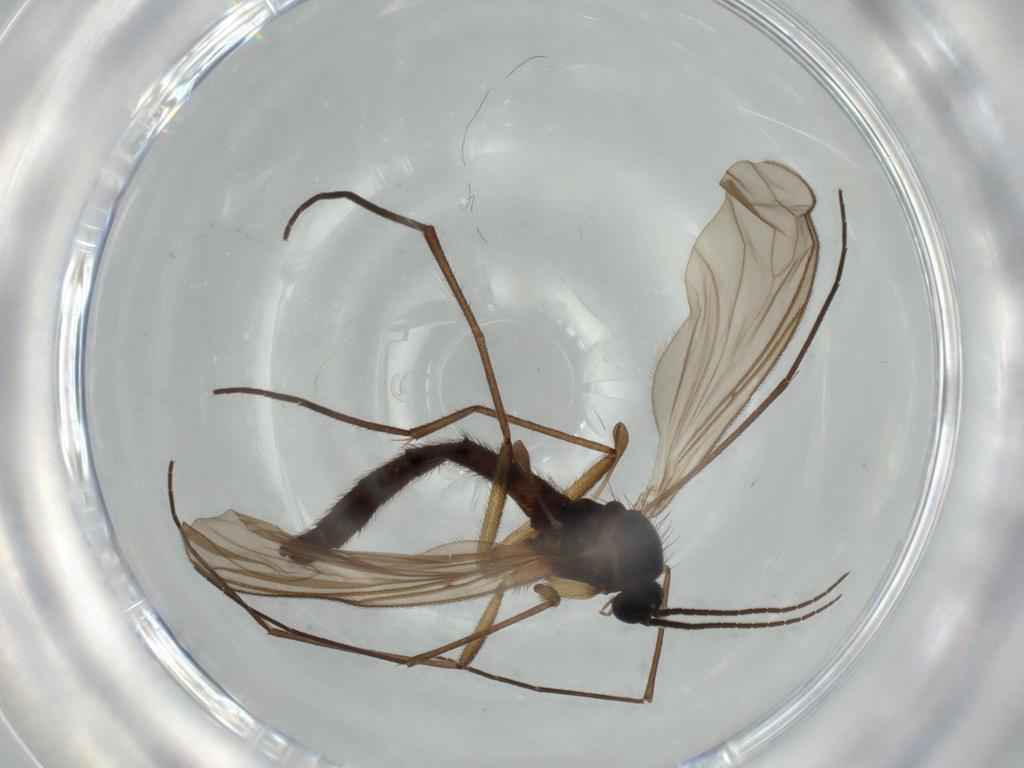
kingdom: Animalia
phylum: Arthropoda
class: Insecta
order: Diptera
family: Sciaridae
